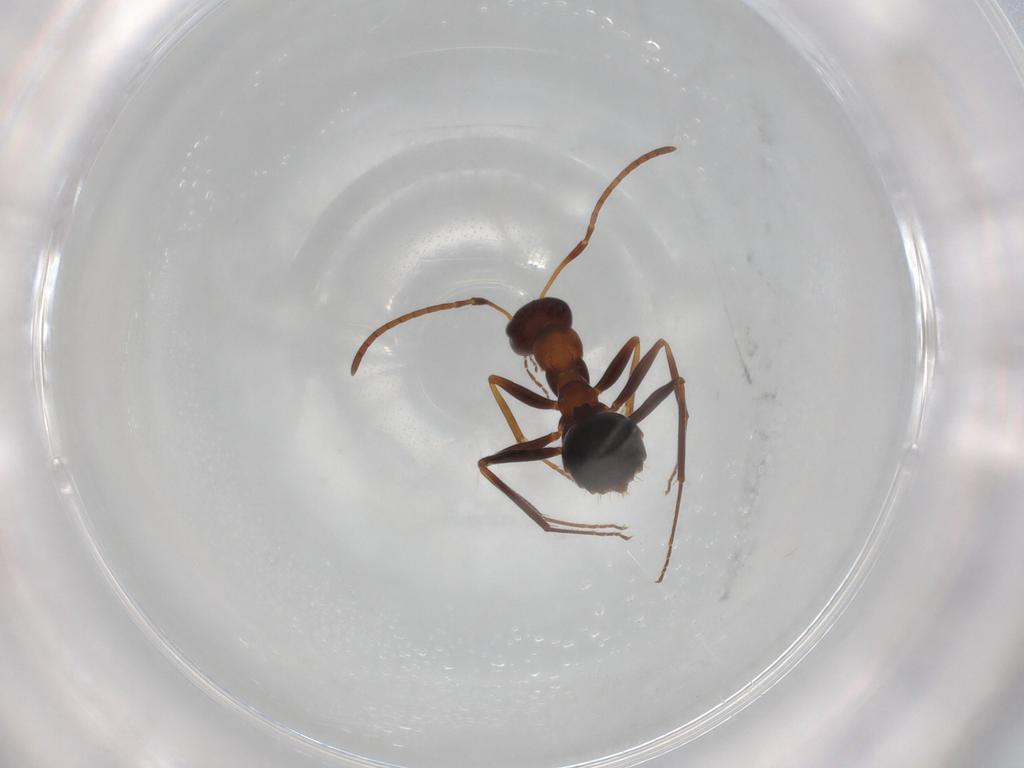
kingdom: Animalia
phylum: Arthropoda
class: Insecta
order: Hymenoptera
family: Formicidae
